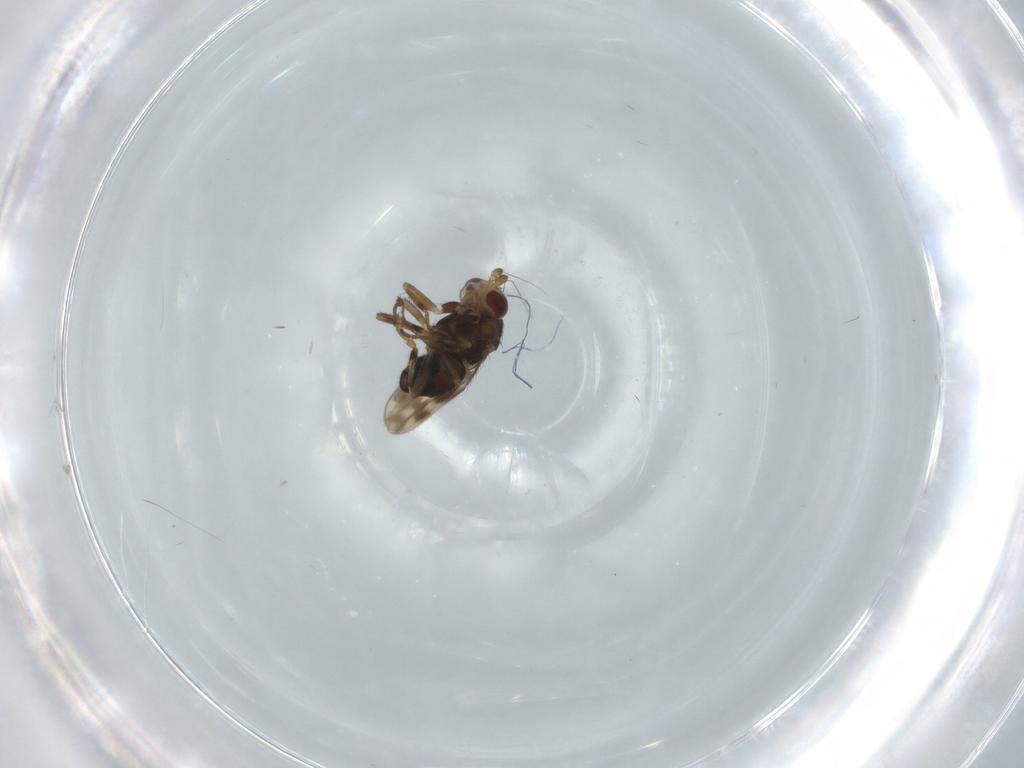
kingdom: Animalia
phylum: Arthropoda
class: Insecta
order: Diptera
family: Sphaeroceridae
